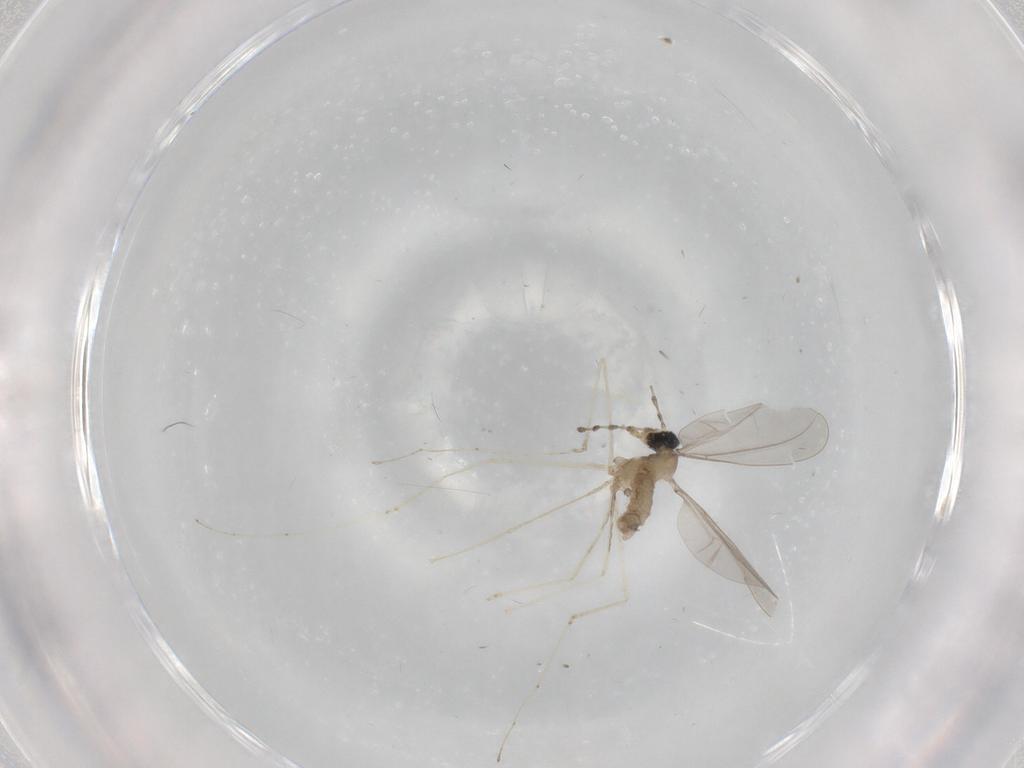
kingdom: Animalia
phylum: Arthropoda
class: Insecta
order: Diptera
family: Cecidomyiidae
